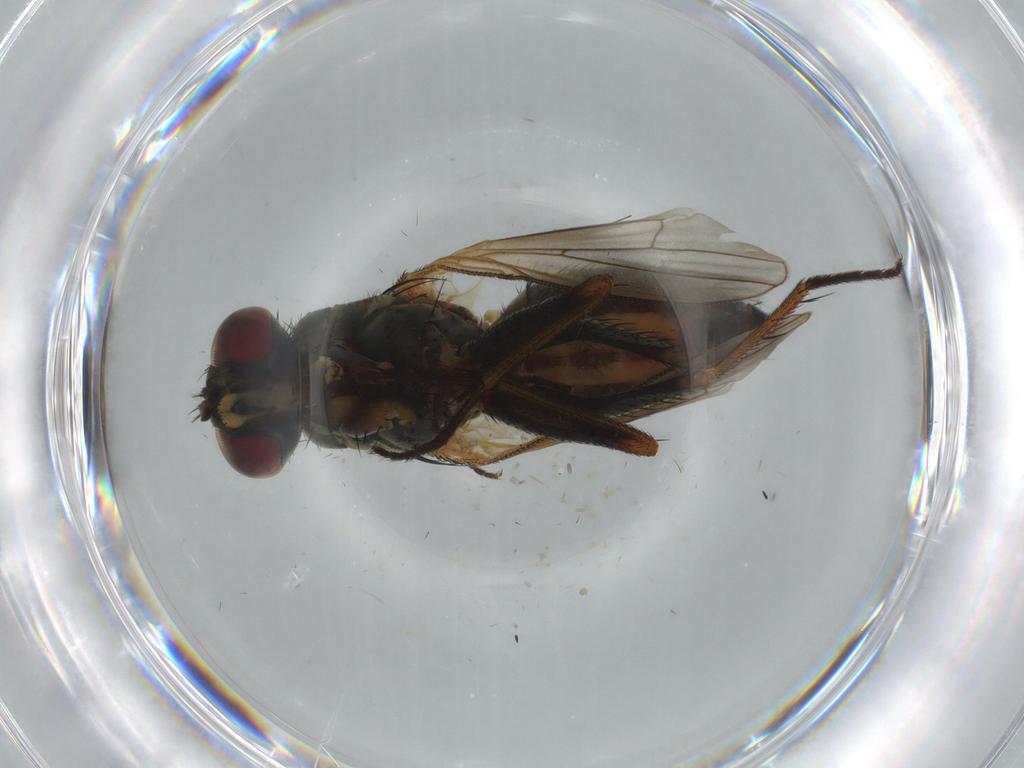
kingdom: Animalia
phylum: Arthropoda
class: Insecta
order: Diptera
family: Muscidae
